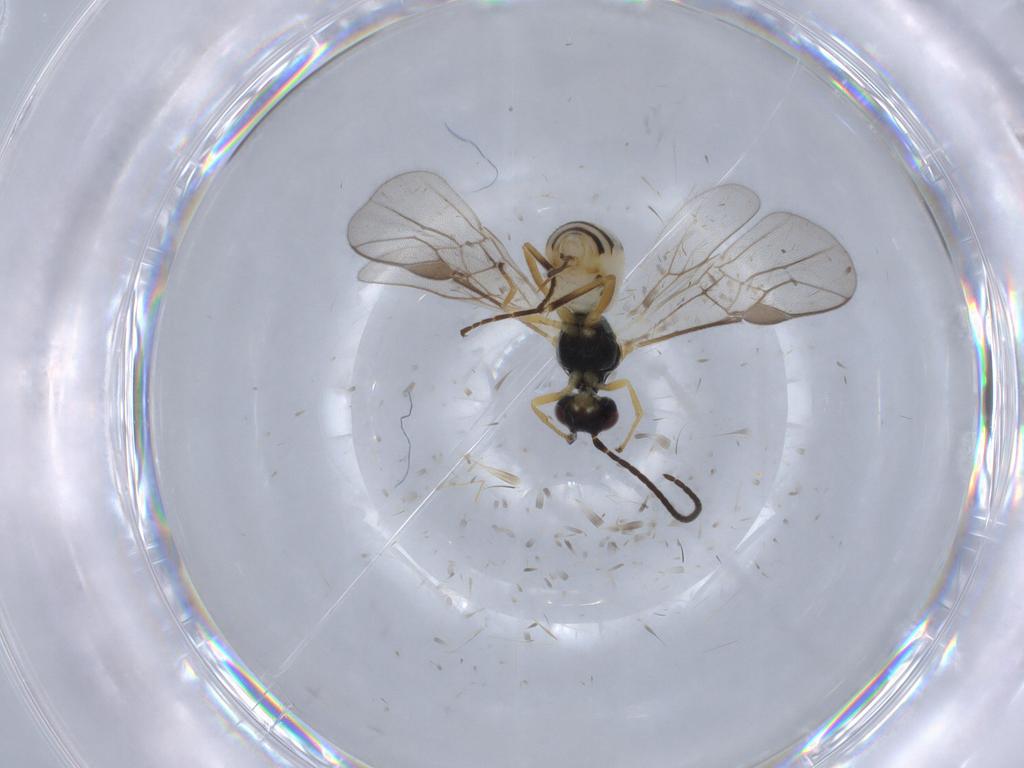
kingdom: Animalia
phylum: Arthropoda
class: Insecta
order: Hymenoptera
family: Braconidae
